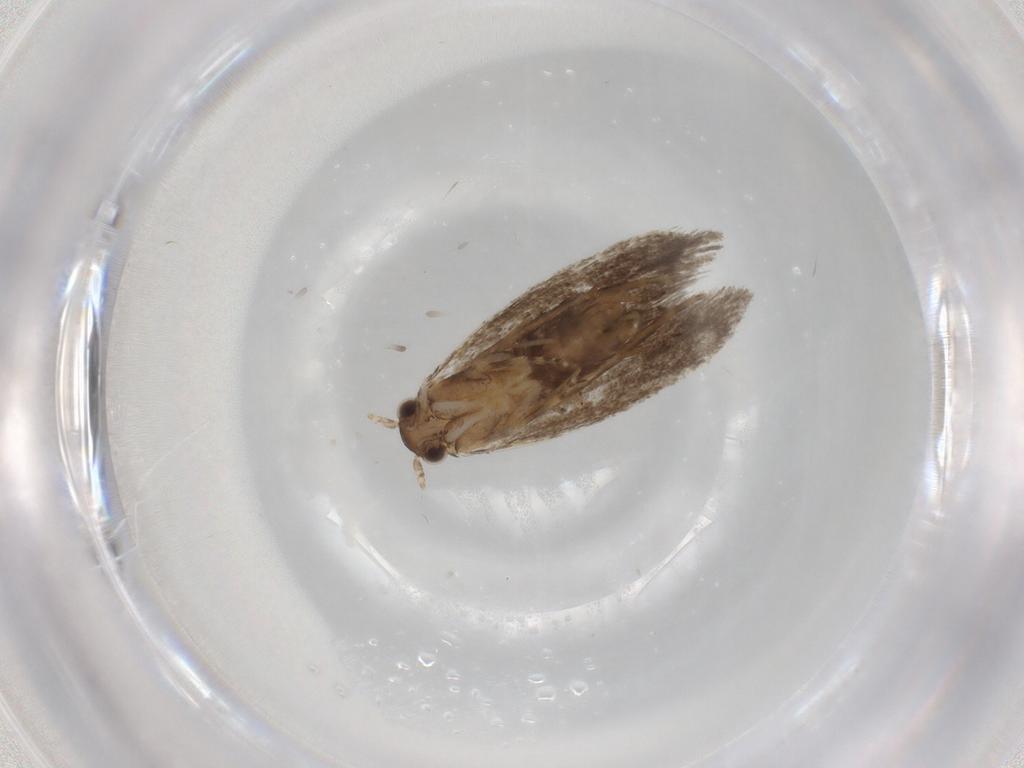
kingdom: Animalia
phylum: Arthropoda
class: Insecta
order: Lepidoptera
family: Dryadaulidae
